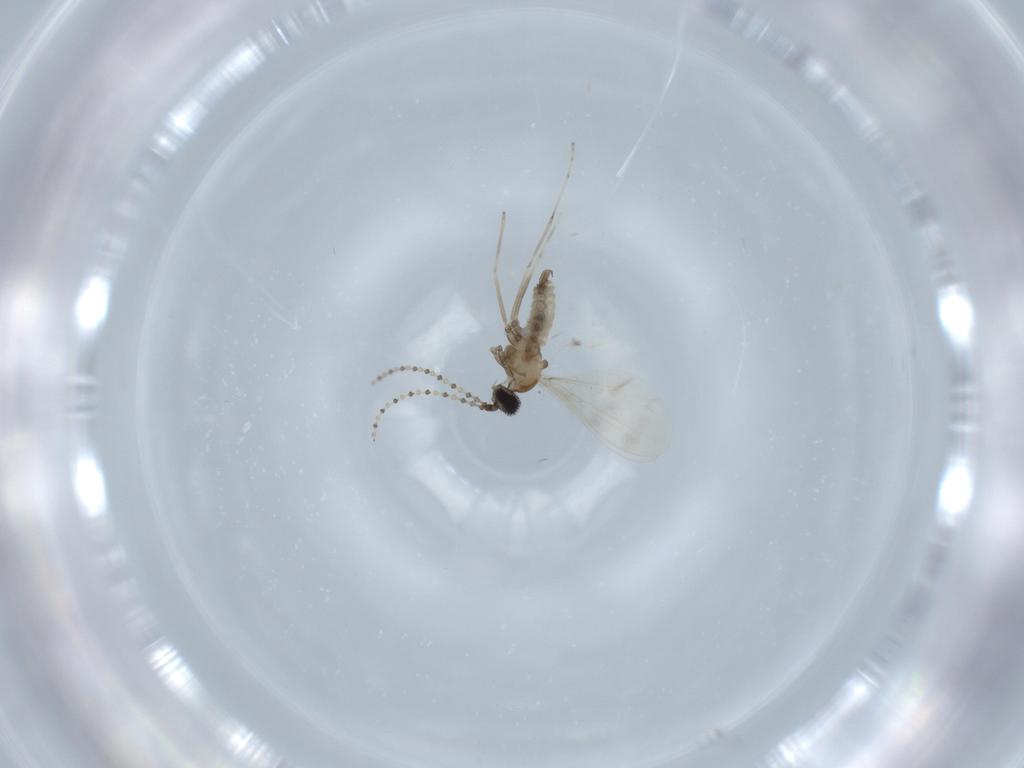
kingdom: Animalia
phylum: Arthropoda
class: Insecta
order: Diptera
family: Cecidomyiidae
